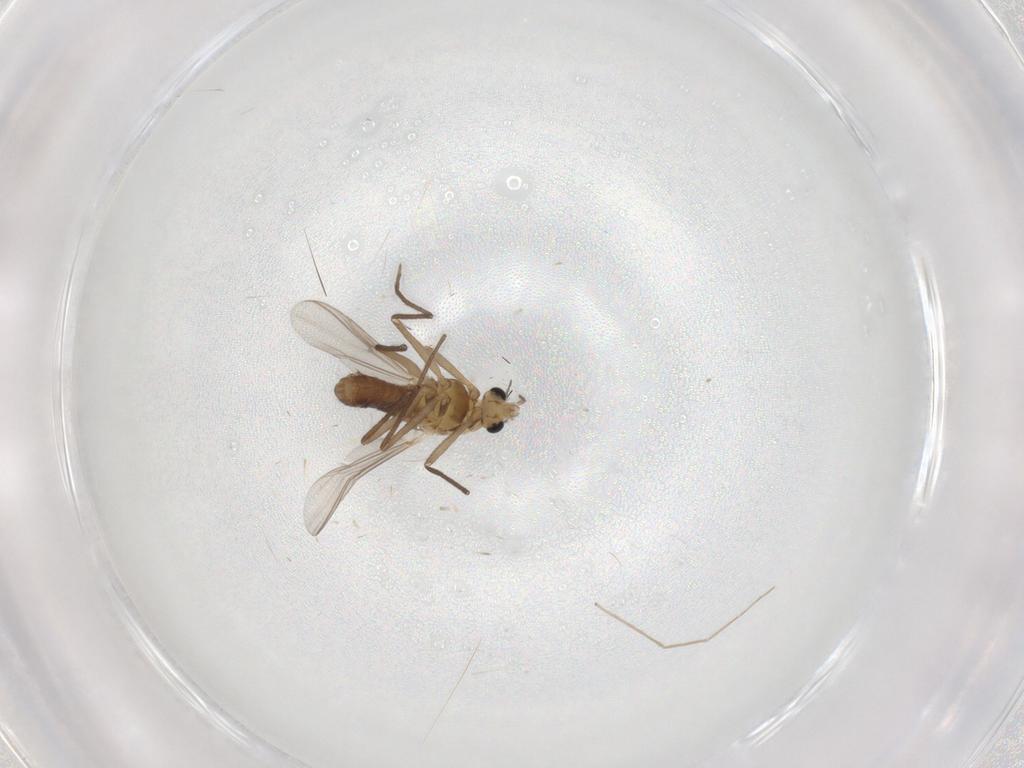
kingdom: Animalia
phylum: Arthropoda
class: Insecta
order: Diptera
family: Chironomidae
